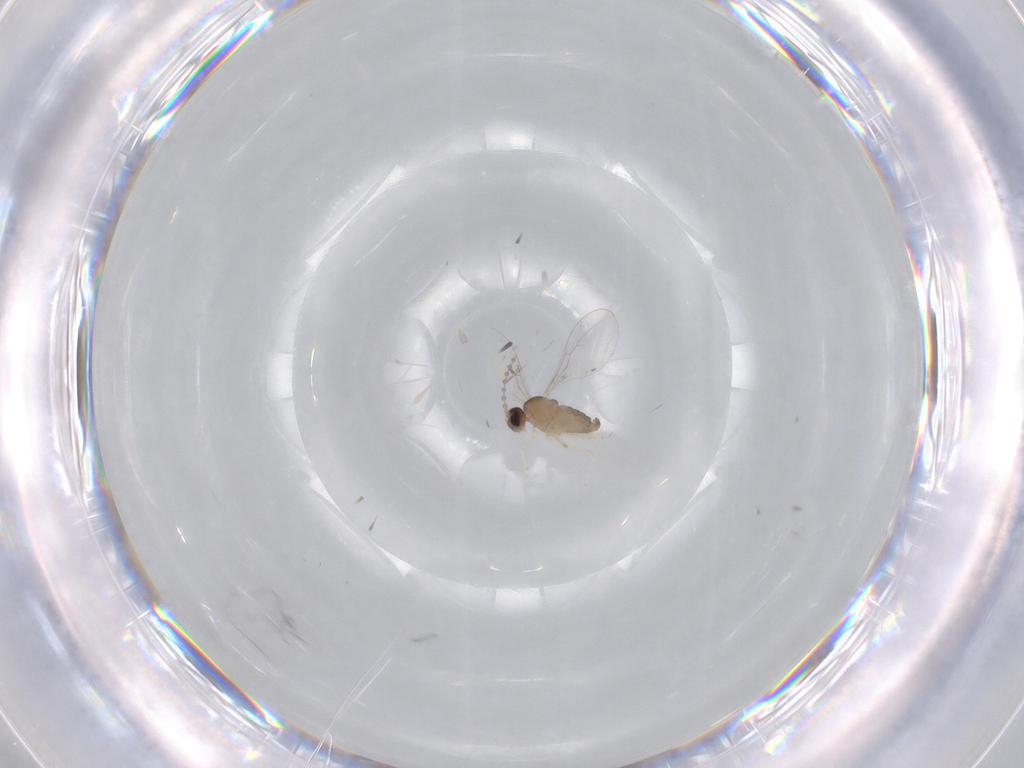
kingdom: Animalia
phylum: Arthropoda
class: Insecta
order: Diptera
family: Cecidomyiidae
